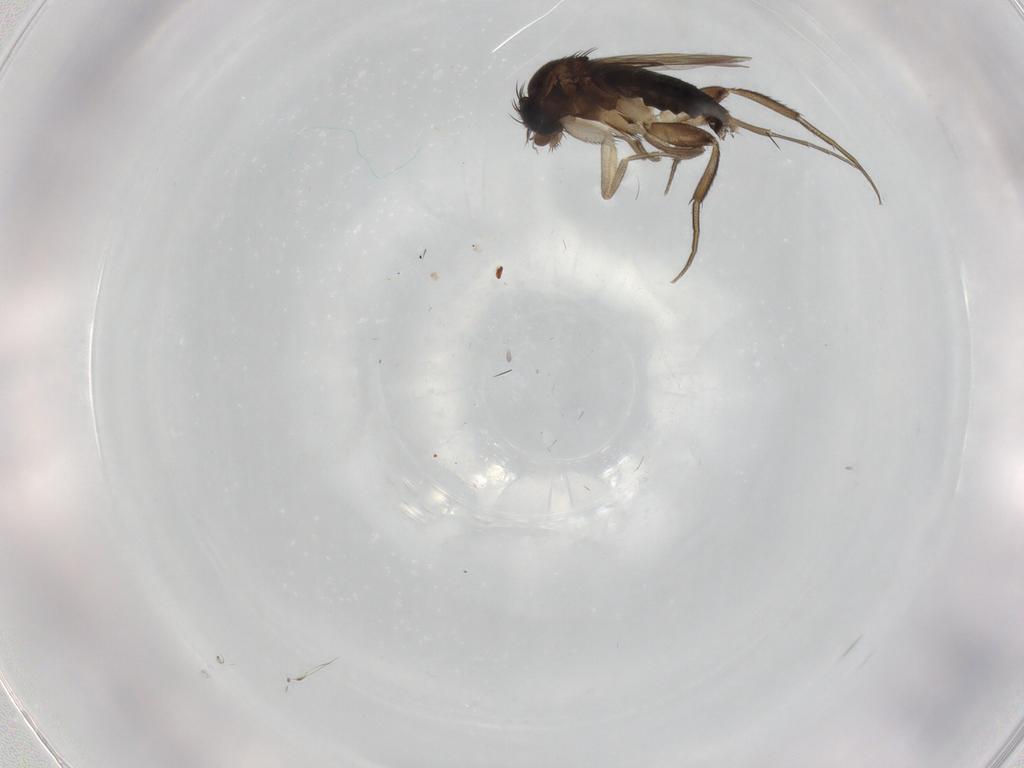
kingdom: Animalia
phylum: Arthropoda
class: Insecta
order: Diptera
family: Phoridae
